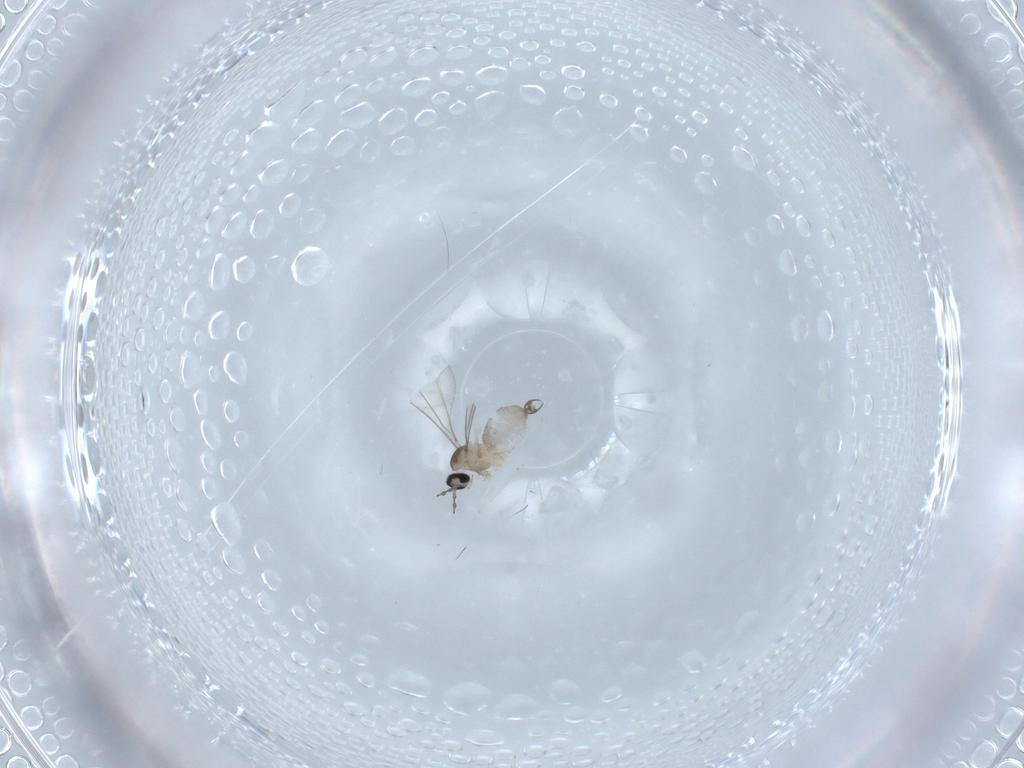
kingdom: Animalia
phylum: Arthropoda
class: Insecta
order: Diptera
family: Cecidomyiidae
